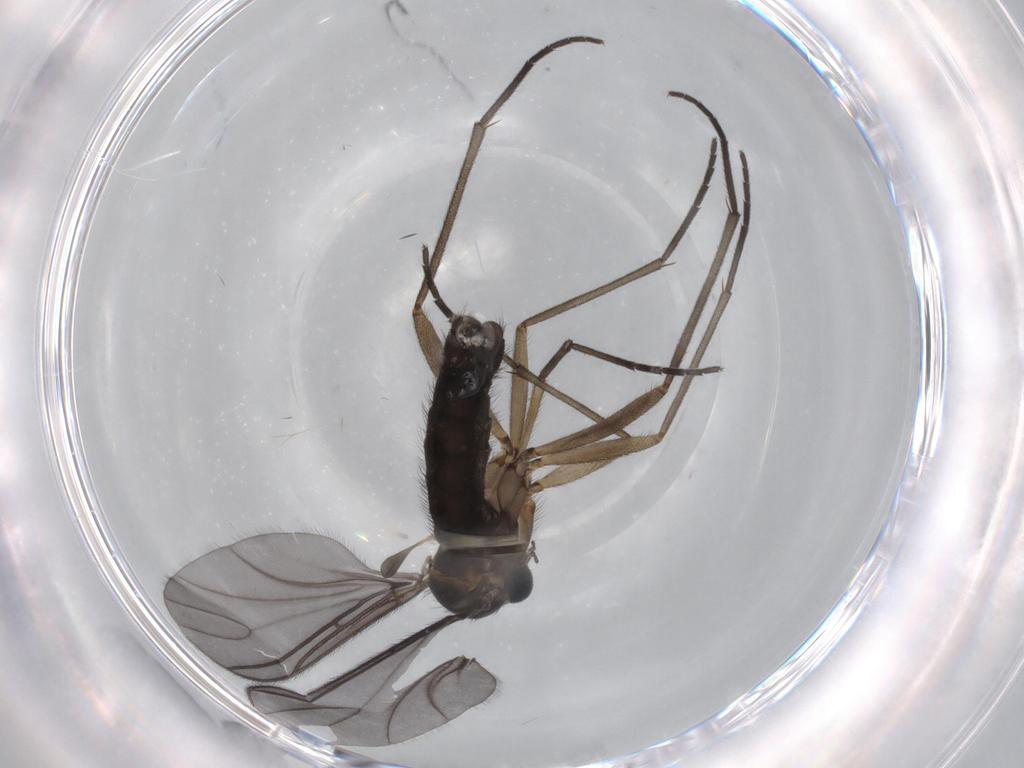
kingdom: Animalia
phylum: Arthropoda
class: Insecta
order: Diptera
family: Sciaridae
